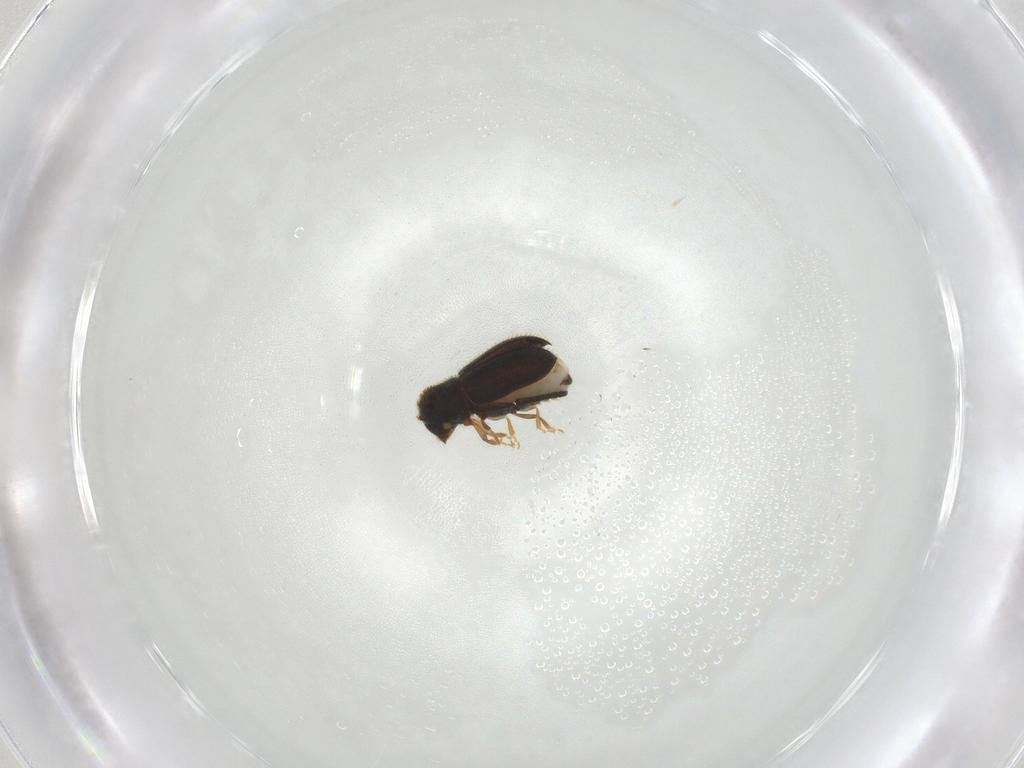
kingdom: Animalia
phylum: Arthropoda
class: Insecta
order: Coleoptera
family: Curculionidae
